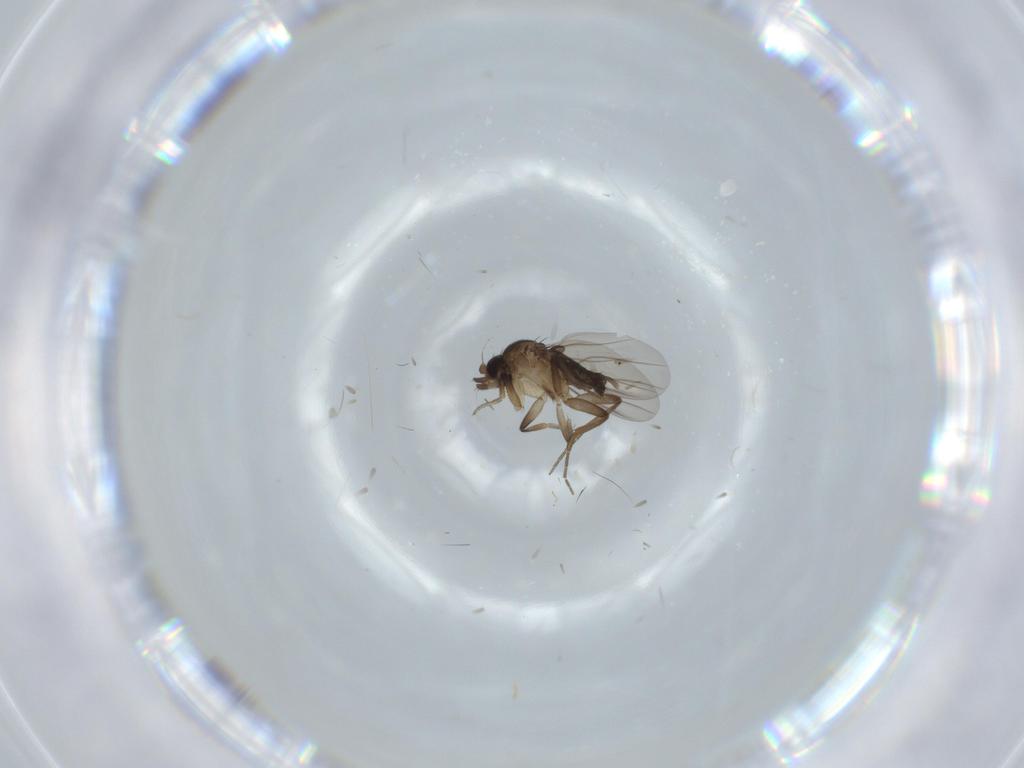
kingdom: Animalia
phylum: Arthropoda
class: Insecta
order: Diptera
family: Dolichopodidae
